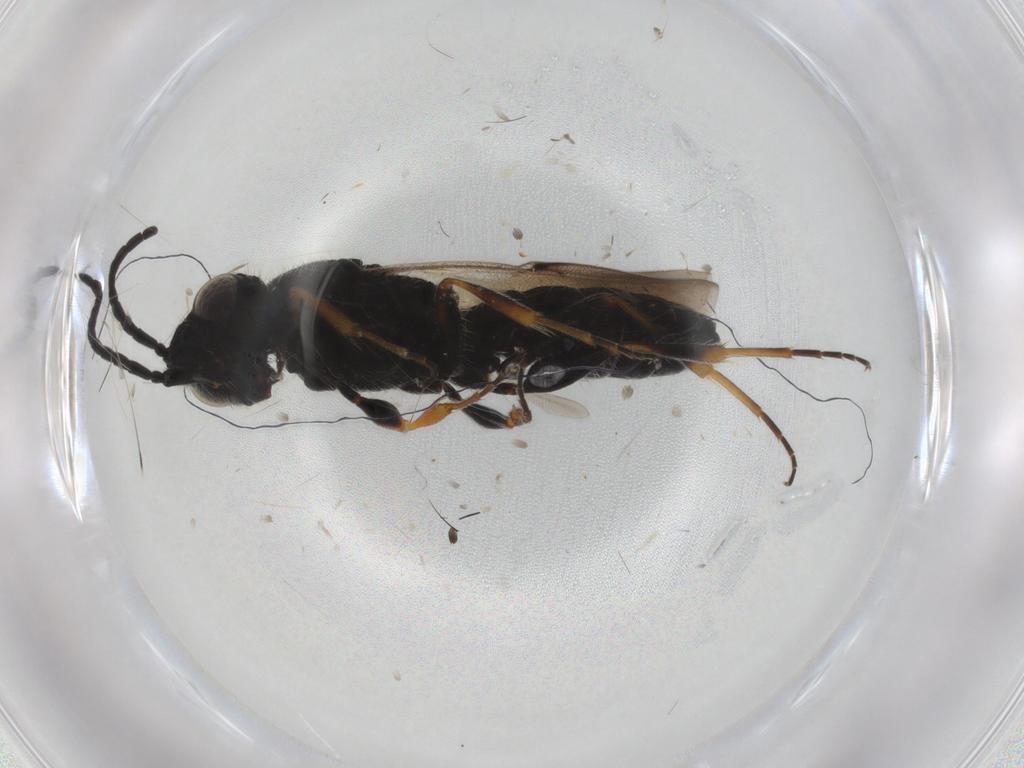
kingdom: Animalia
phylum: Arthropoda
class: Insecta
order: Hymenoptera
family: Scelionidae
